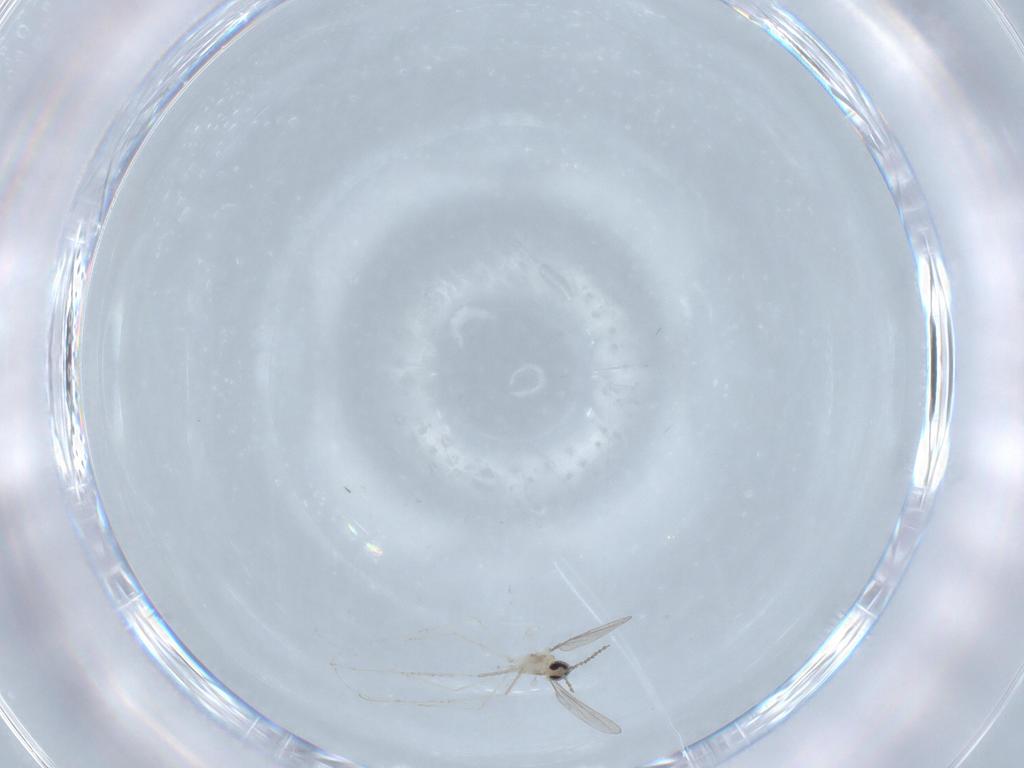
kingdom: Animalia
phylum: Arthropoda
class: Insecta
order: Diptera
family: Cecidomyiidae
